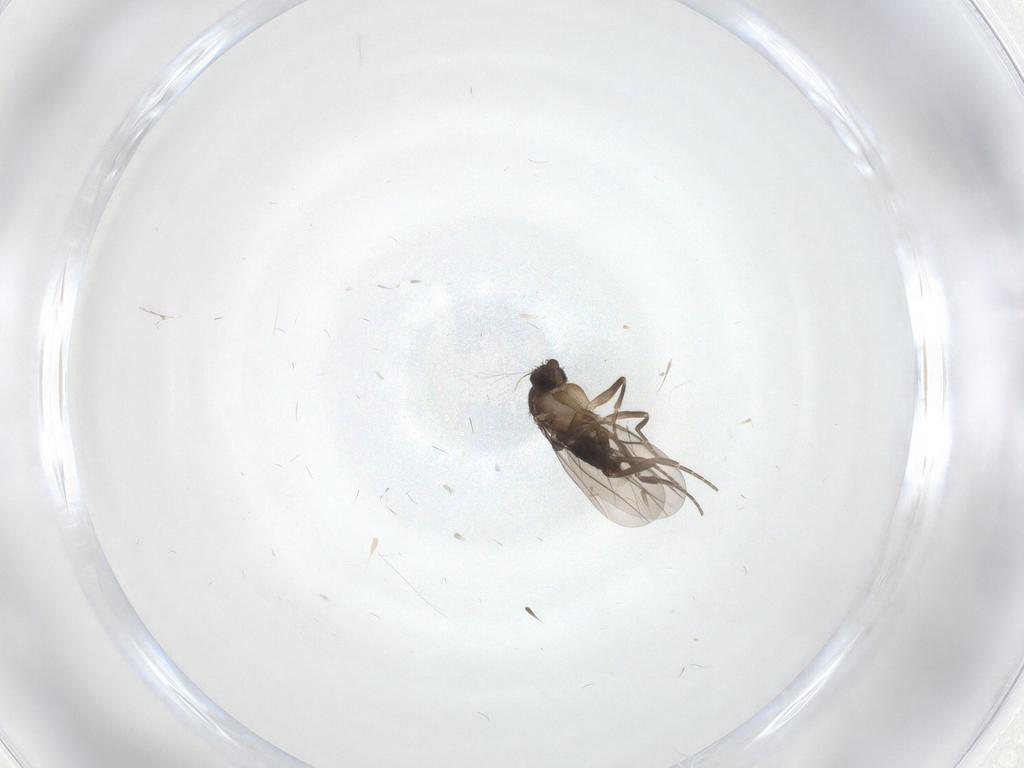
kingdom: Animalia
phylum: Arthropoda
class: Insecta
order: Diptera
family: Phoridae
